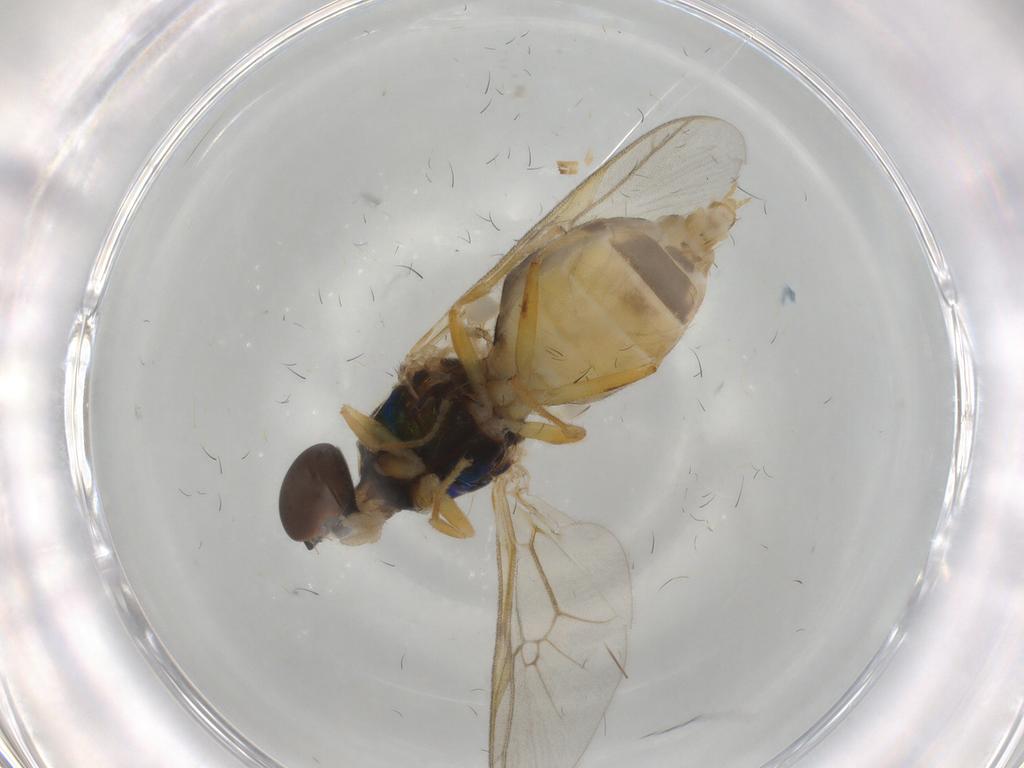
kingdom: Animalia
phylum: Arthropoda
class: Insecta
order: Diptera
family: Stratiomyidae
